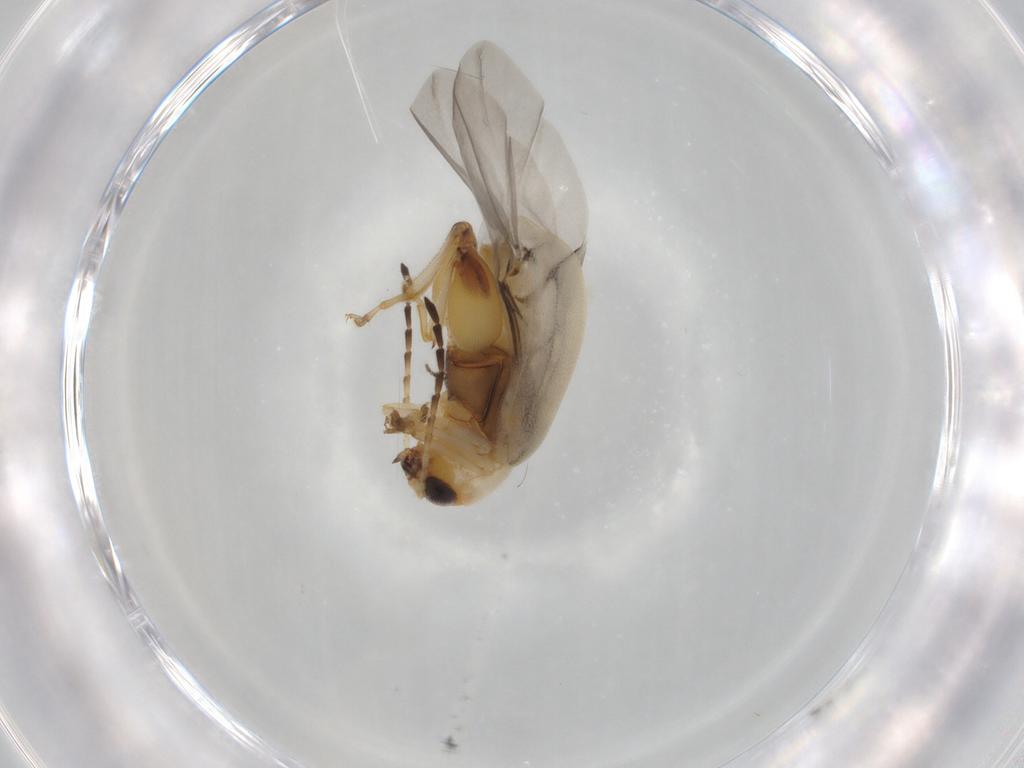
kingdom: Animalia
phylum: Arthropoda
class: Insecta
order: Coleoptera
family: Chrysomelidae
